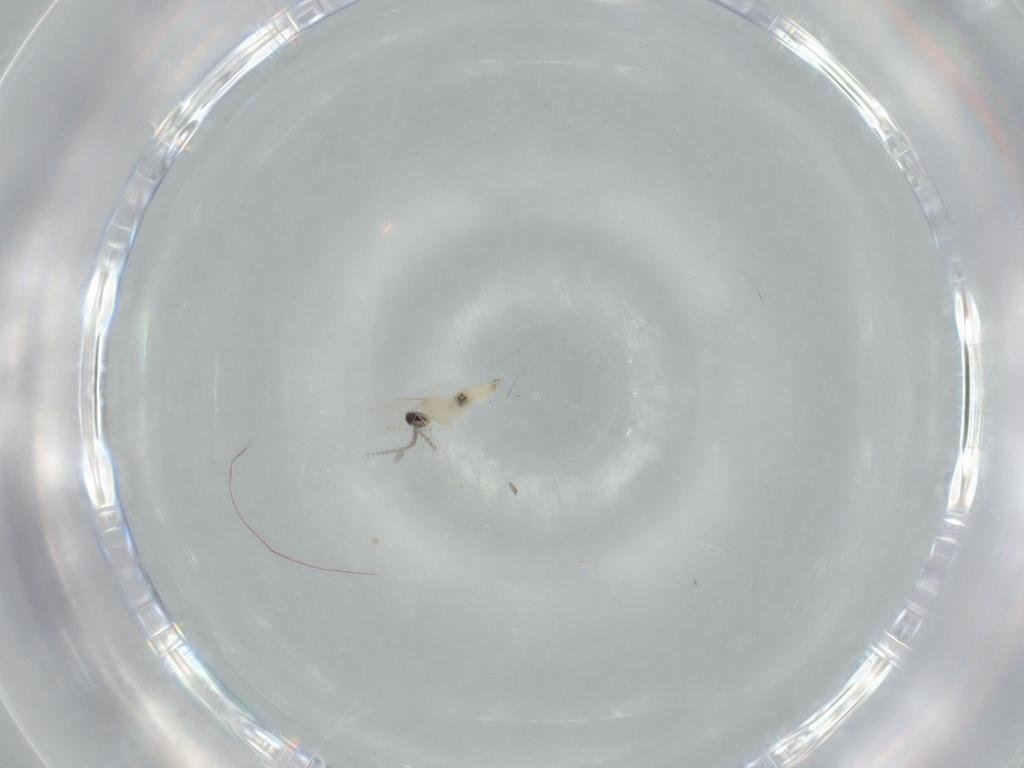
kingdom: Animalia
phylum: Arthropoda
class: Insecta
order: Diptera
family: Cecidomyiidae
